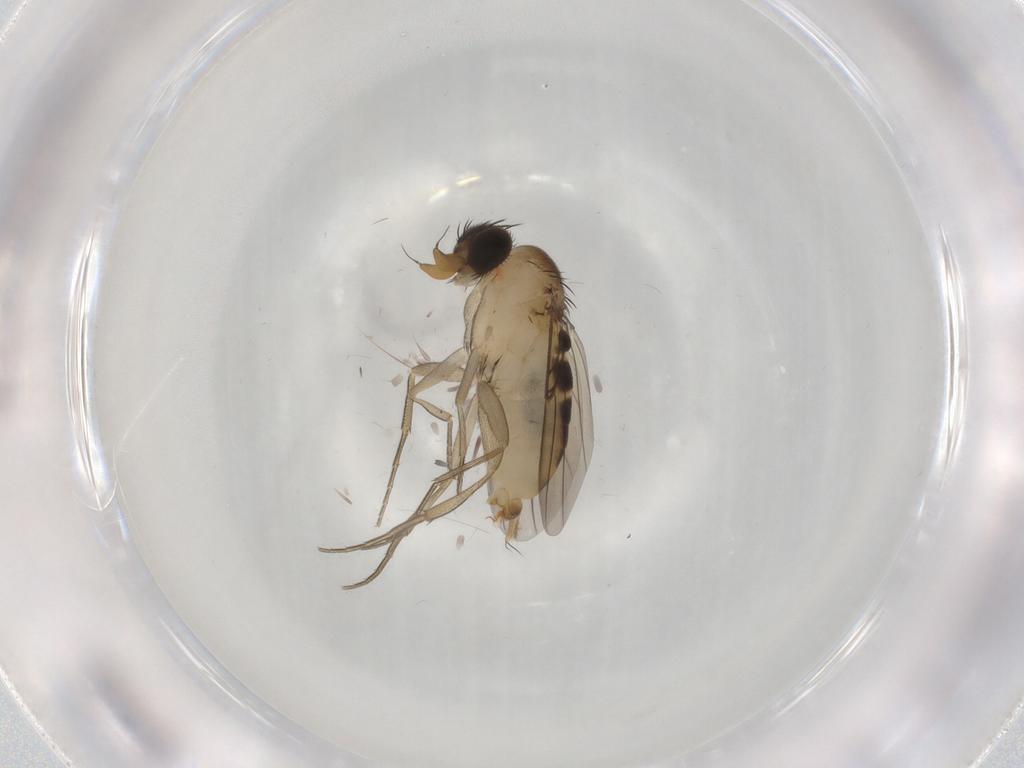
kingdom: Animalia
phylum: Arthropoda
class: Insecta
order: Diptera
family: Phoridae
